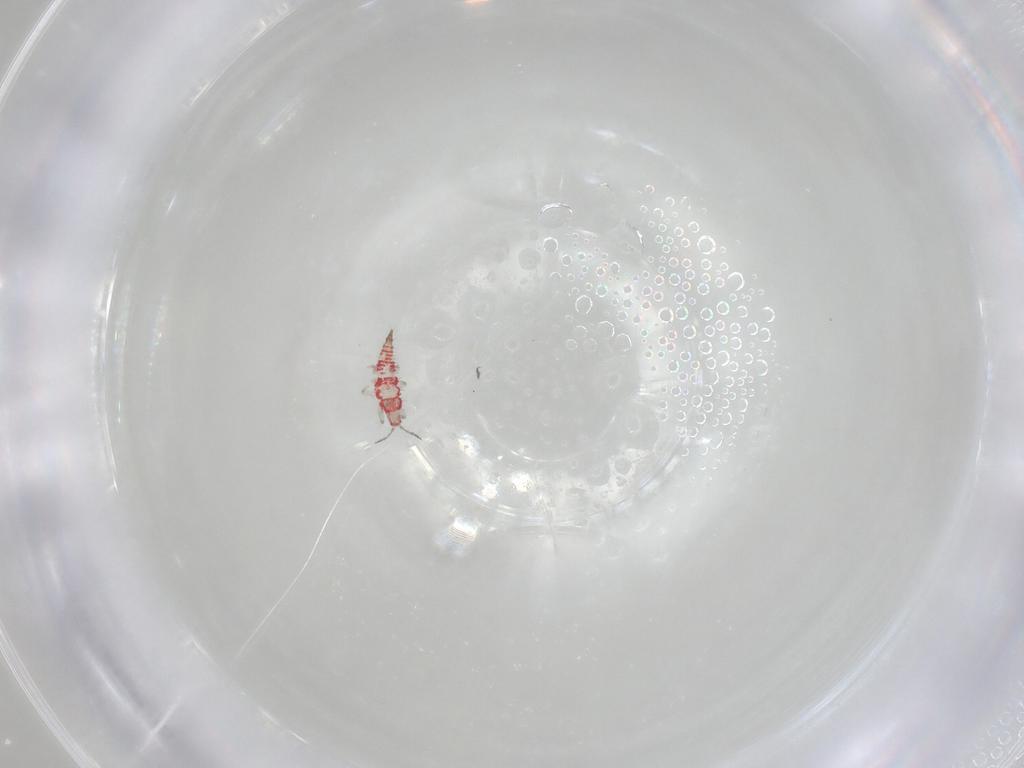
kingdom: Animalia
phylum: Arthropoda
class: Insecta
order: Thysanoptera
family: Phlaeothripidae
